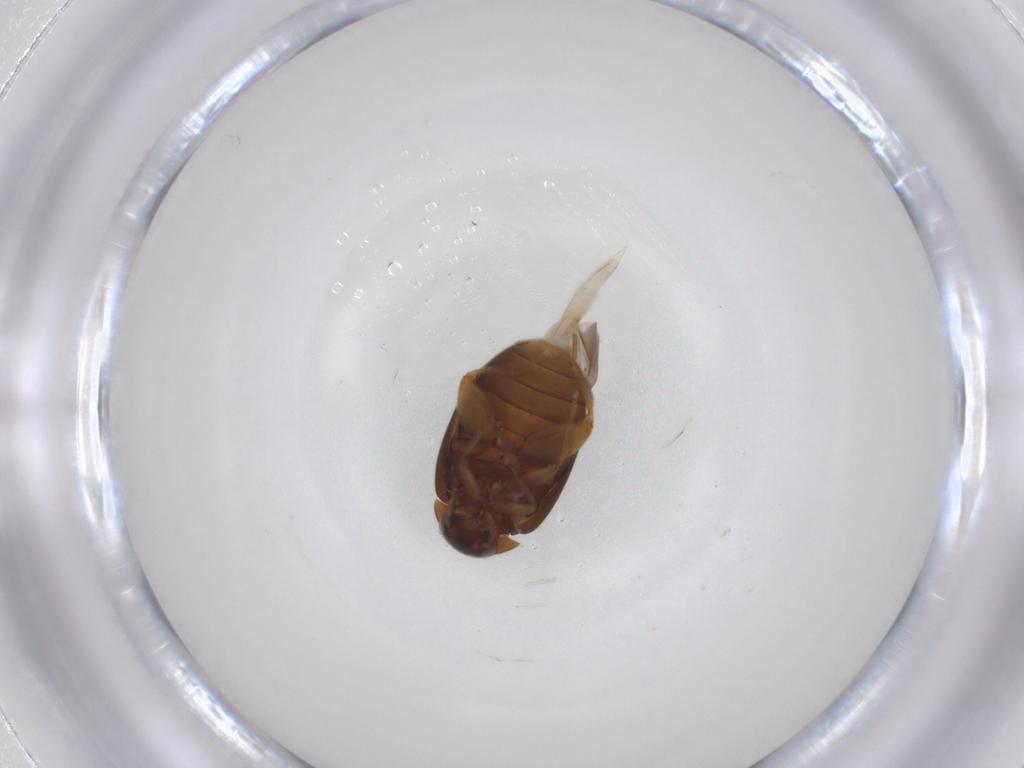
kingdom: Animalia
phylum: Arthropoda
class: Insecta
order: Coleoptera
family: Scirtidae
